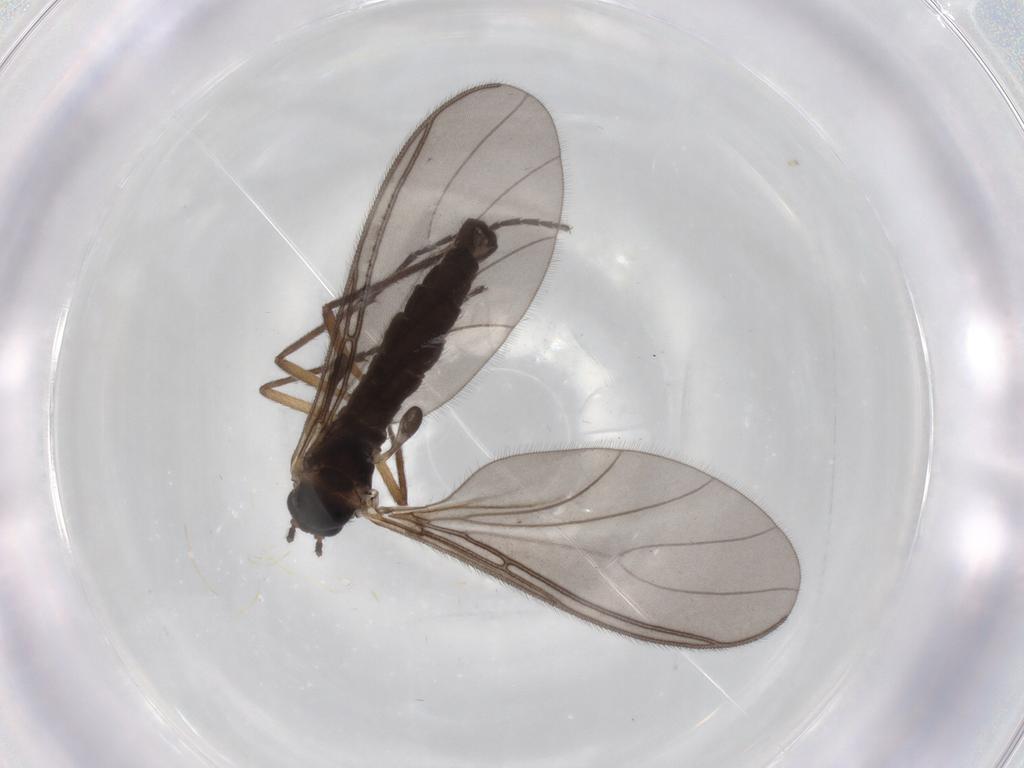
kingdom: Animalia
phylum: Arthropoda
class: Insecta
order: Diptera
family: Sciaridae
